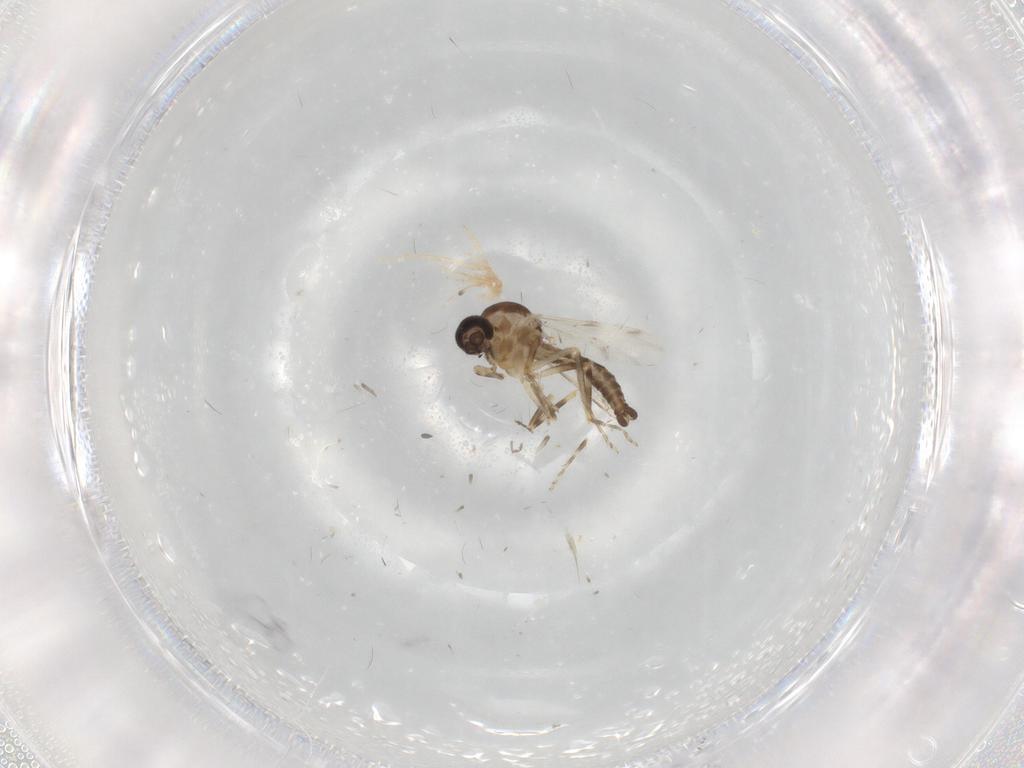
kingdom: Animalia
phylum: Arthropoda
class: Insecta
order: Diptera
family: Ceratopogonidae
